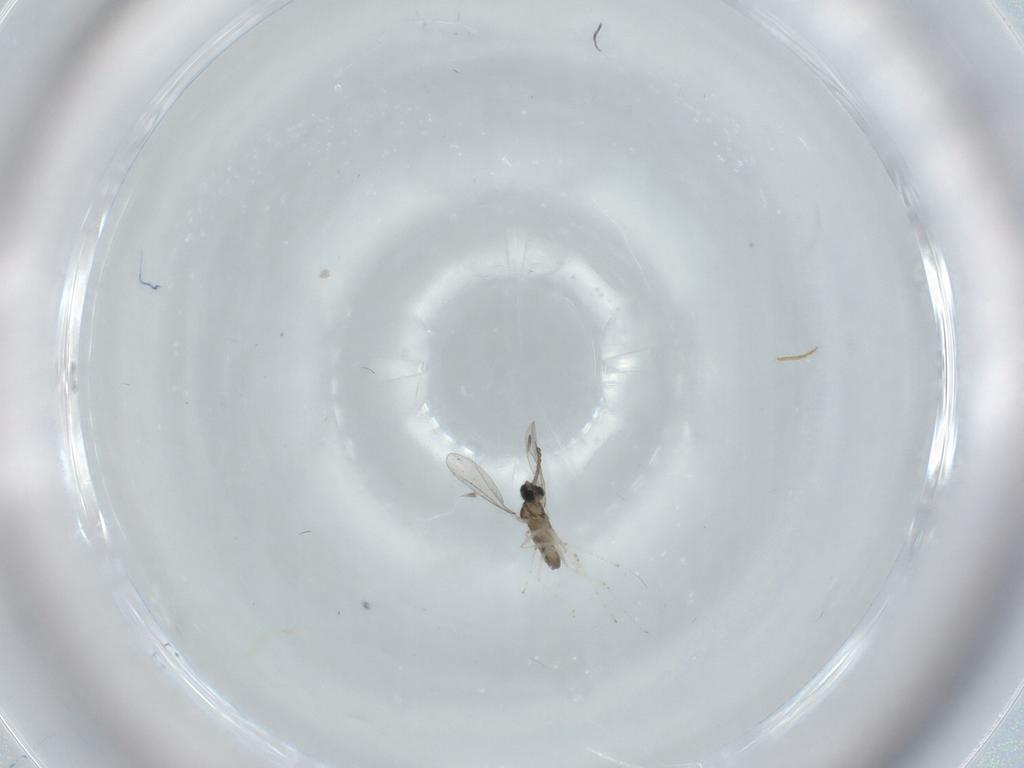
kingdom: Animalia
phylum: Arthropoda
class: Insecta
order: Diptera
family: Cecidomyiidae
